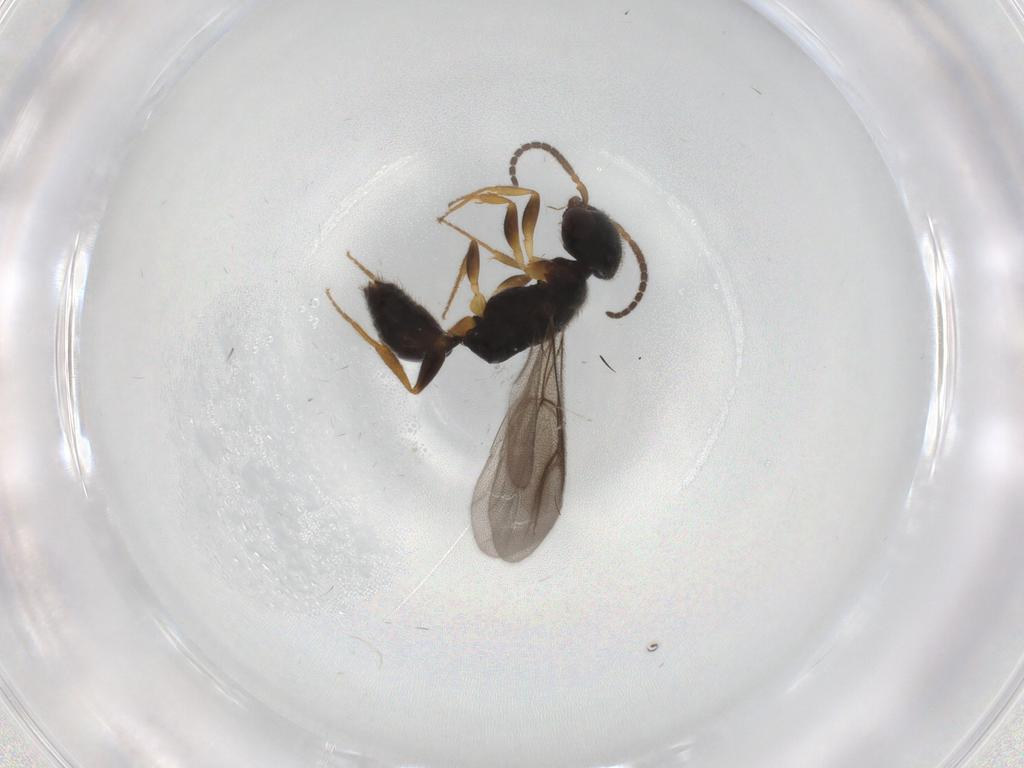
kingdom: Animalia
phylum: Arthropoda
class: Insecta
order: Hymenoptera
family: Bethylidae
